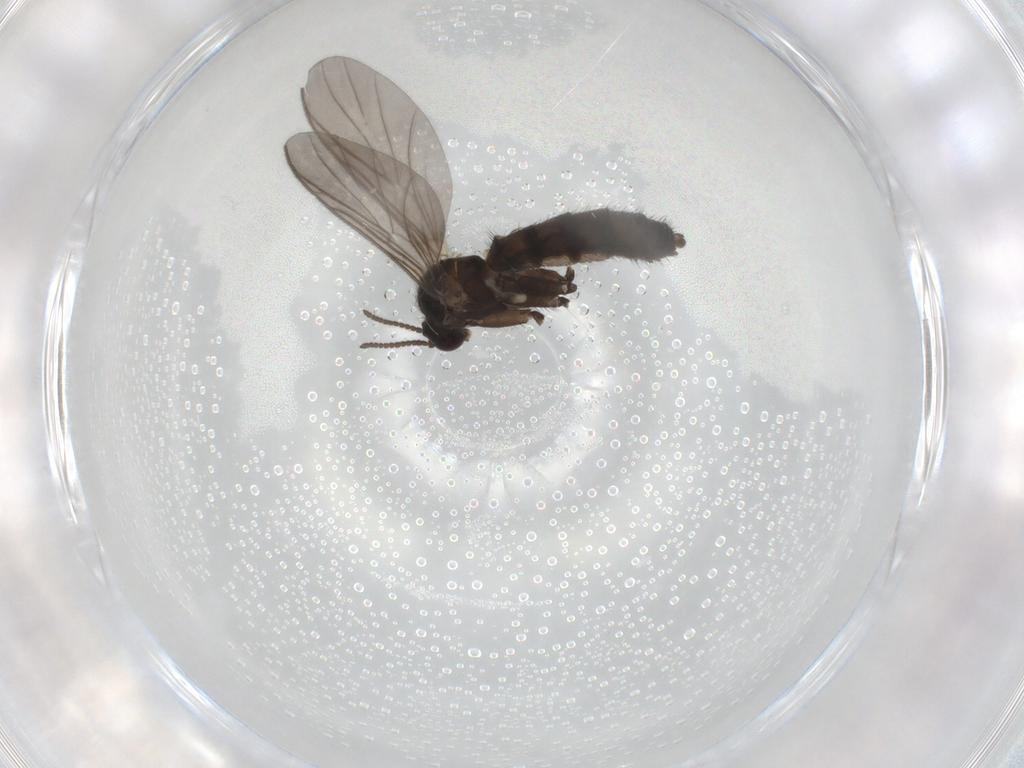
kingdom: Animalia
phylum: Arthropoda
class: Insecta
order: Diptera
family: Keroplatidae
